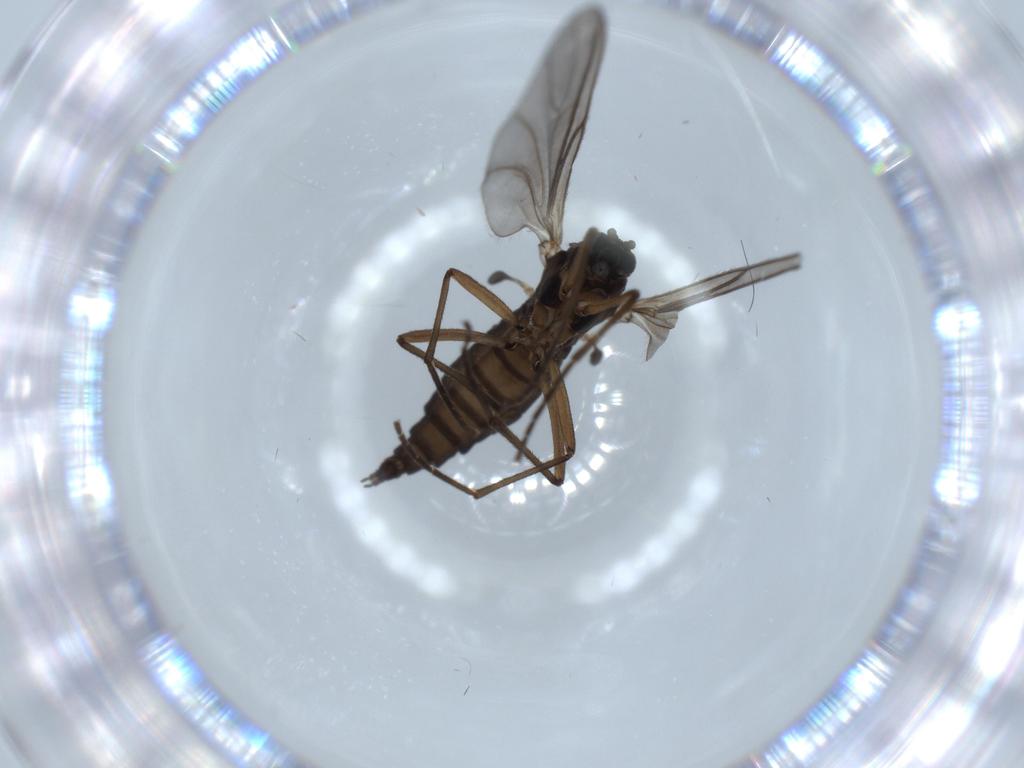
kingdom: Animalia
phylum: Arthropoda
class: Insecta
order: Diptera
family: Sciaridae
